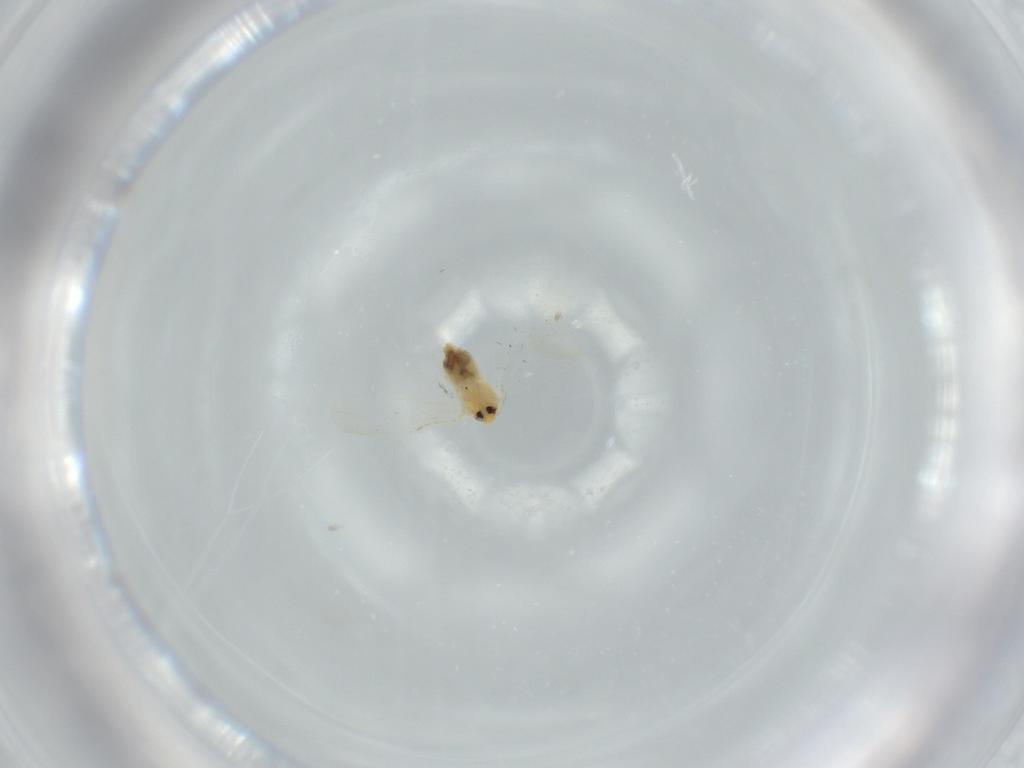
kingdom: Animalia
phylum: Arthropoda
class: Insecta
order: Hemiptera
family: Aleyrodidae
